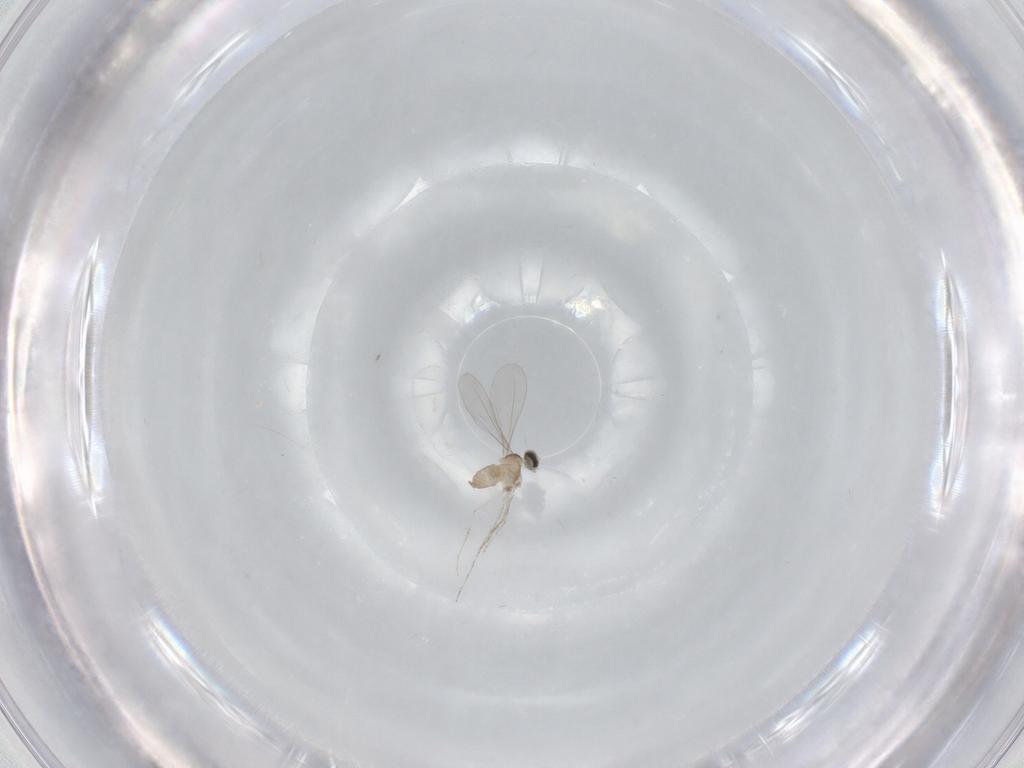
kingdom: Animalia
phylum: Arthropoda
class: Insecta
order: Diptera
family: Cecidomyiidae
